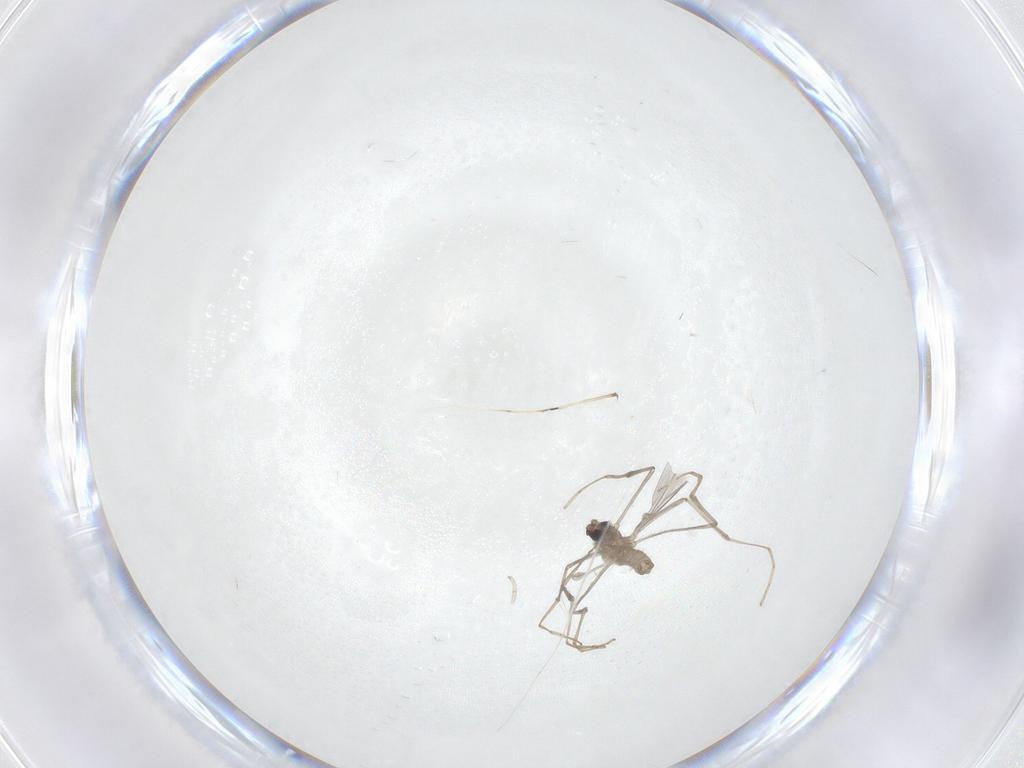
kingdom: Animalia
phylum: Arthropoda
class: Insecta
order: Diptera
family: Cecidomyiidae
